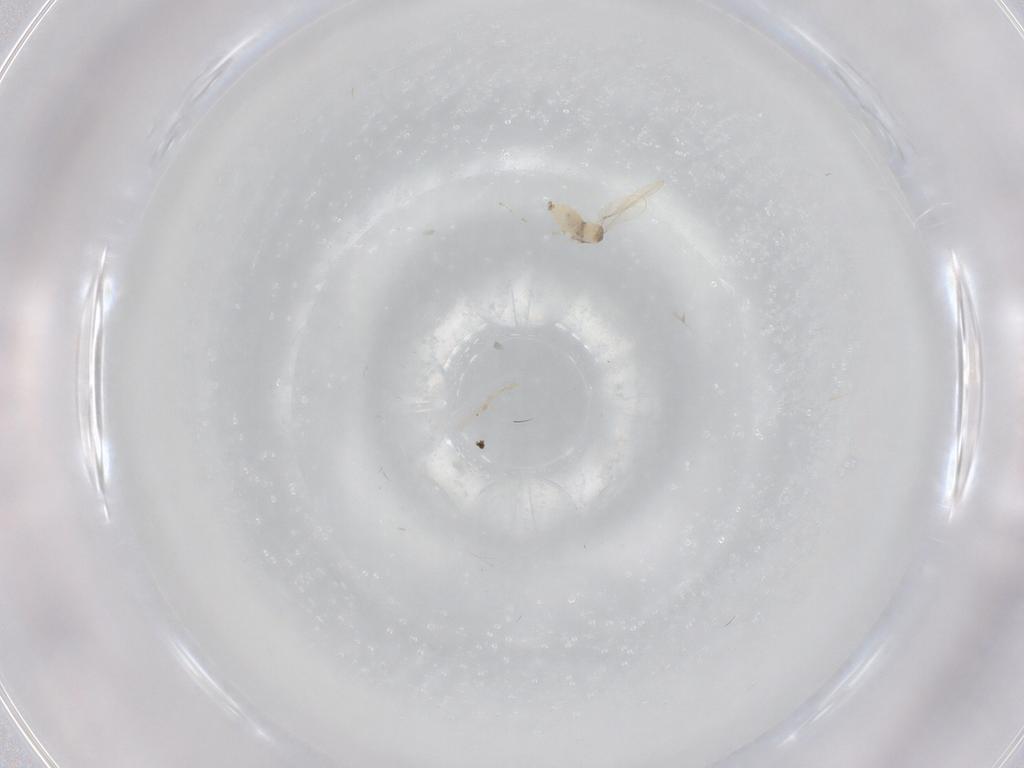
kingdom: Animalia
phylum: Arthropoda
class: Insecta
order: Diptera
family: Cecidomyiidae
